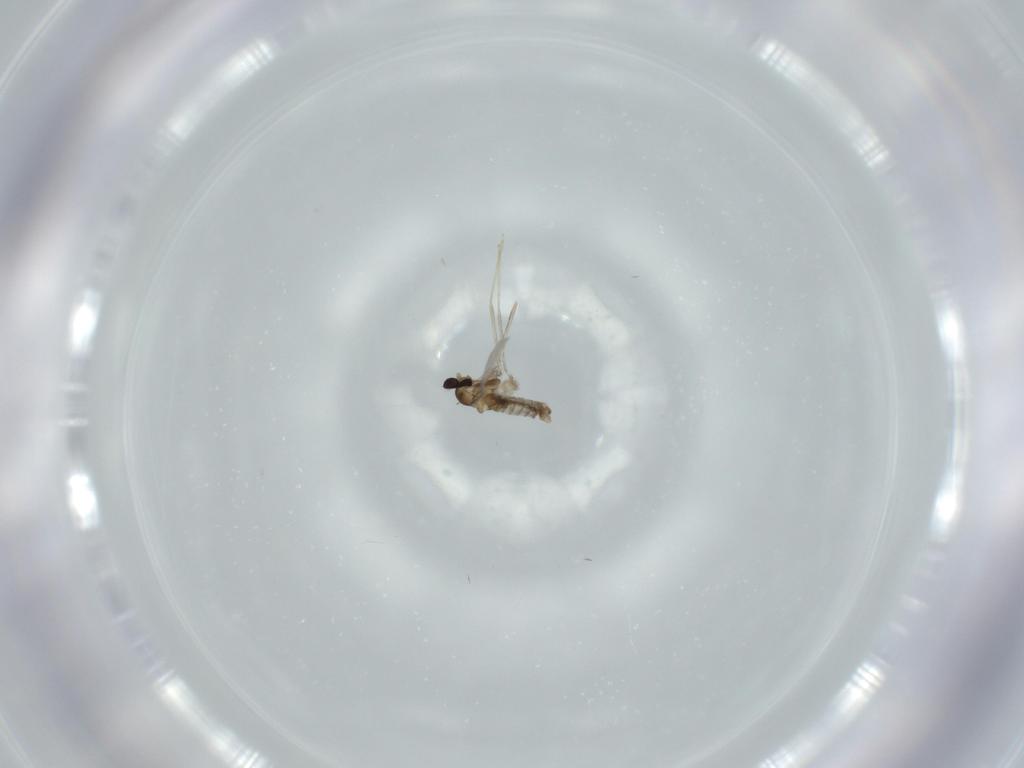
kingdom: Animalia
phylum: Arthropoda
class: Insecta
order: Diptera
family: Cecidomyiidae
